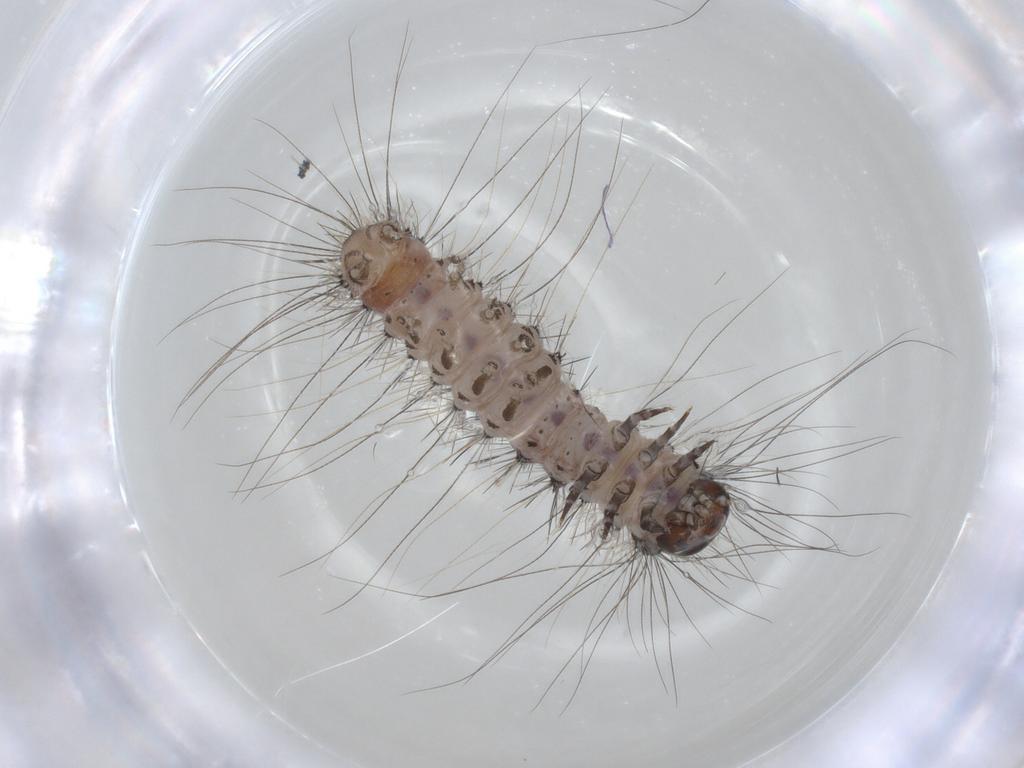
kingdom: Animalia
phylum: Arthropoda
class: Insecta
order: Lepidoptera
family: Erebidae
